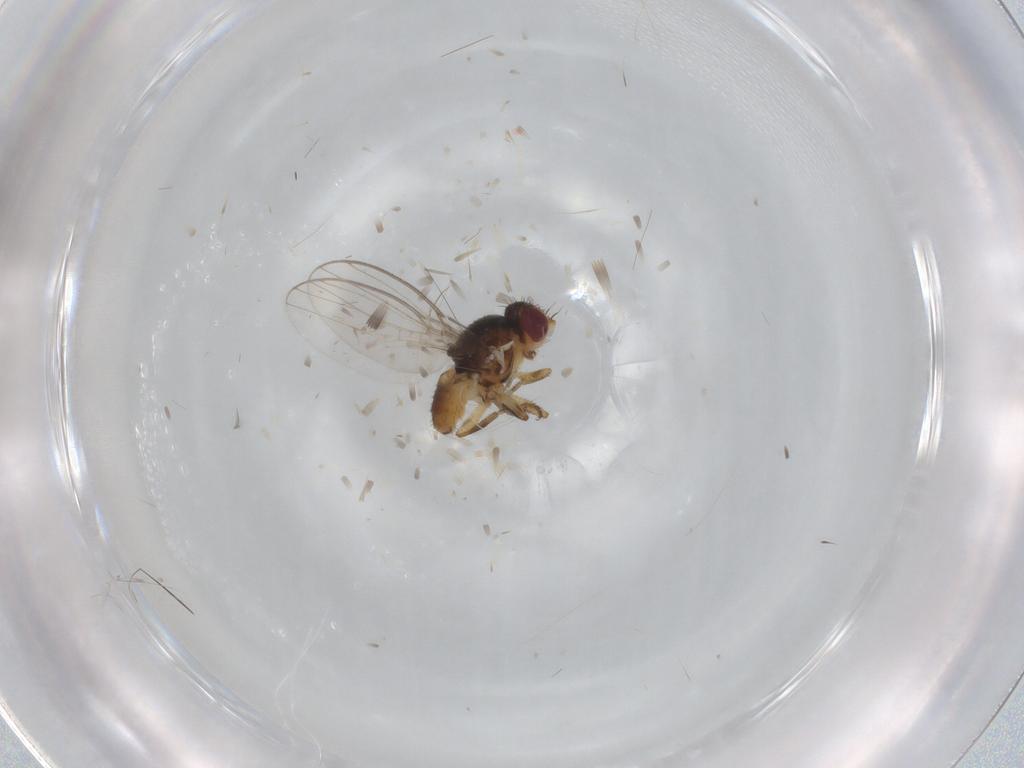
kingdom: Animalia
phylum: Arthropoda
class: Insecta
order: Diptera
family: Chloropidae
